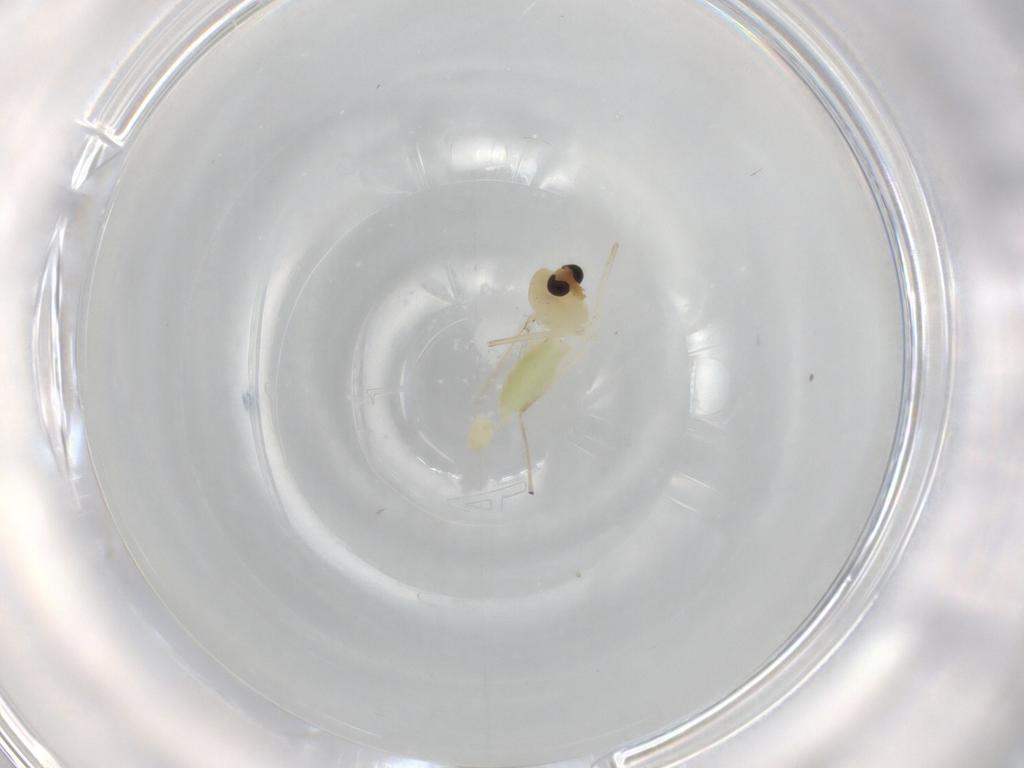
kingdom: Animalia
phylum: Arthropoda
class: Insecta
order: Diptera
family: Chironomidae
